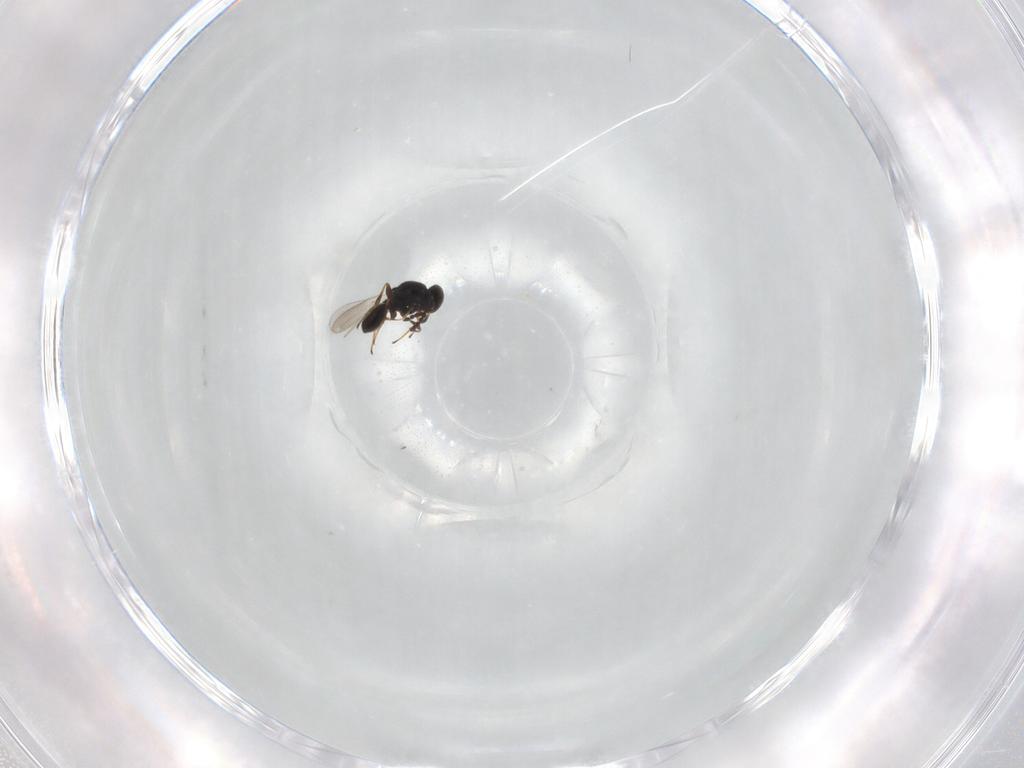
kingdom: Animalia
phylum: Arthropoda
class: Insecta
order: Hymenoptera
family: Platygastridae
